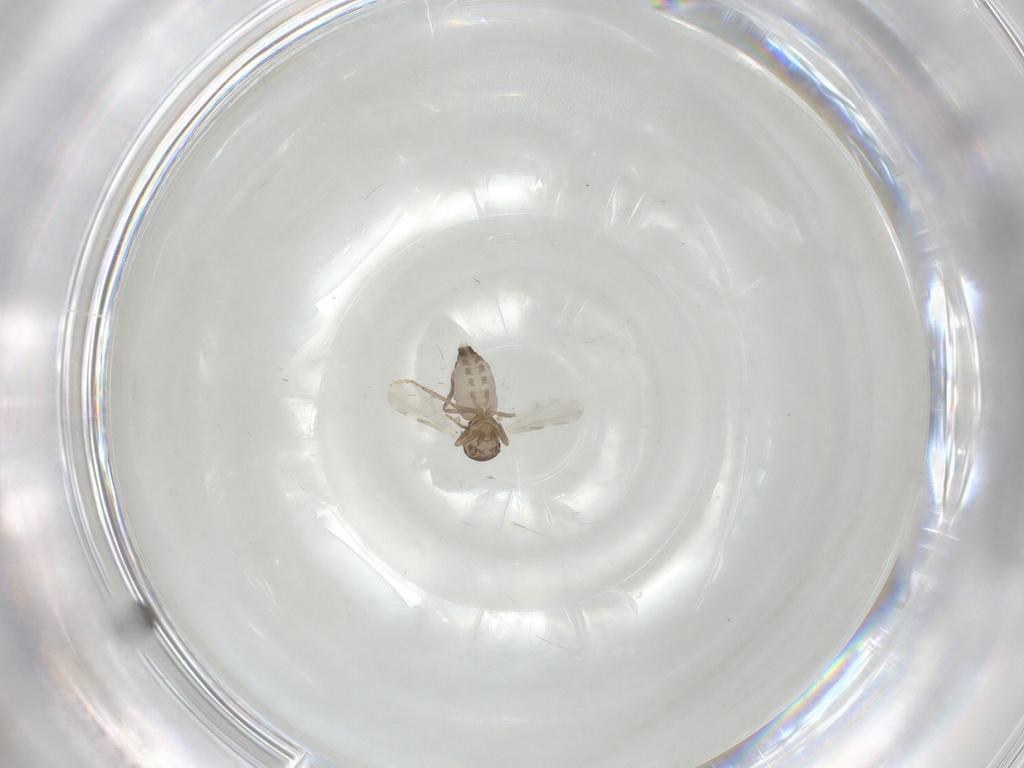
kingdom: Animalia
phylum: Arthropoda
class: Insecta
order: Diptera
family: Ceratopogonidae
